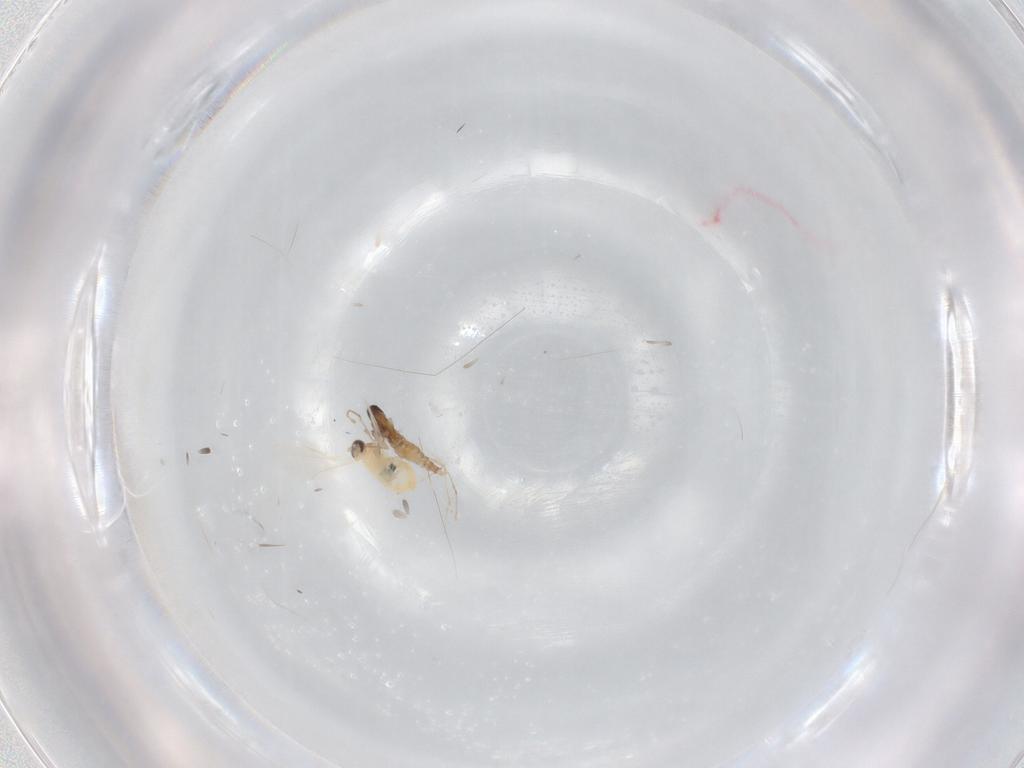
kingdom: Animalia
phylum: Arthropoda
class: Insecta
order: Diptera
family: Cecidomyiidae
